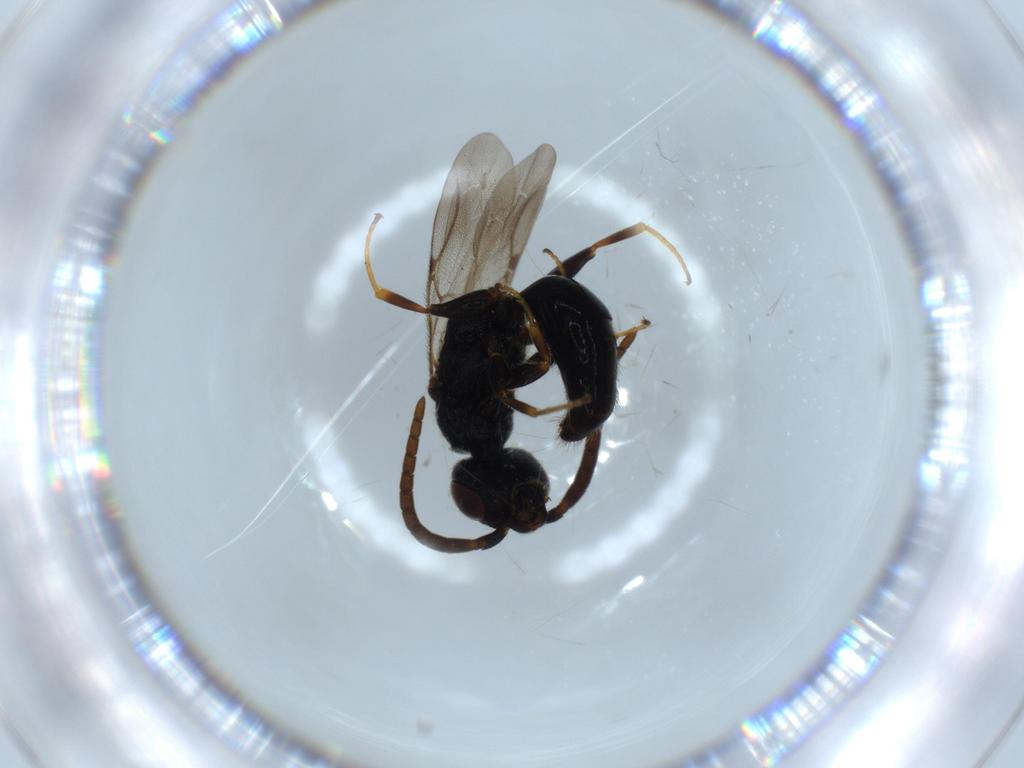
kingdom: Animalia
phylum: Arthropoda
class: Insecta
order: Hymenoptera
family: Bethylidae
